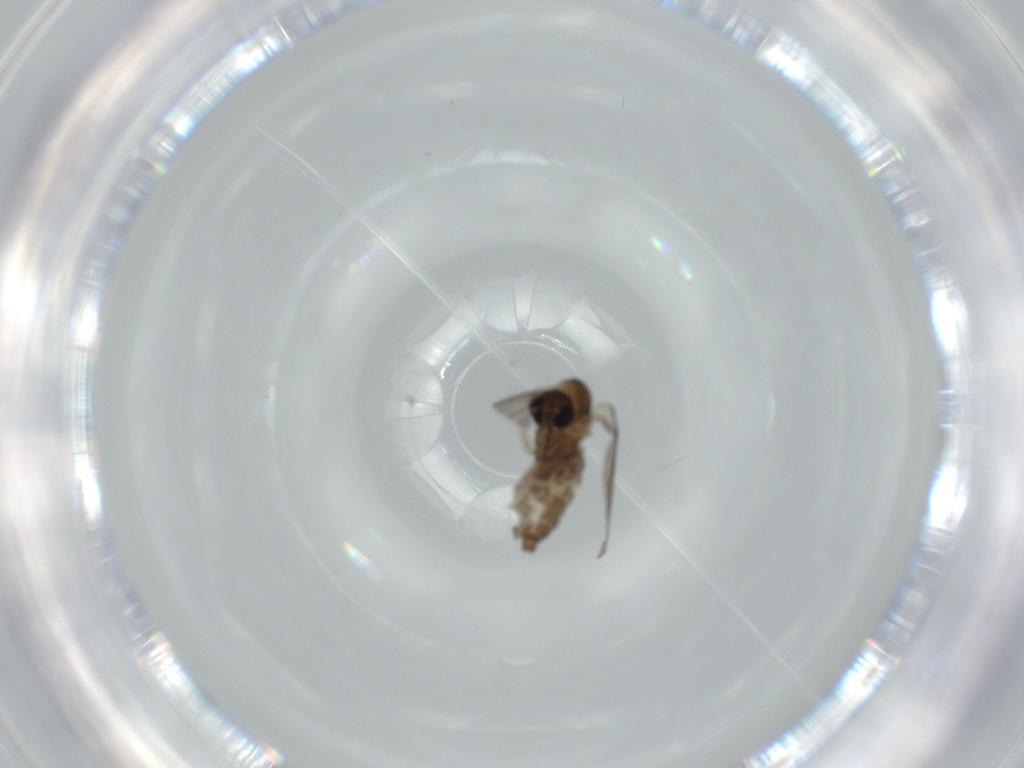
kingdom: Animalia
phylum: Arthropoda
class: Insecta
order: Diptera
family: Psychodidae
